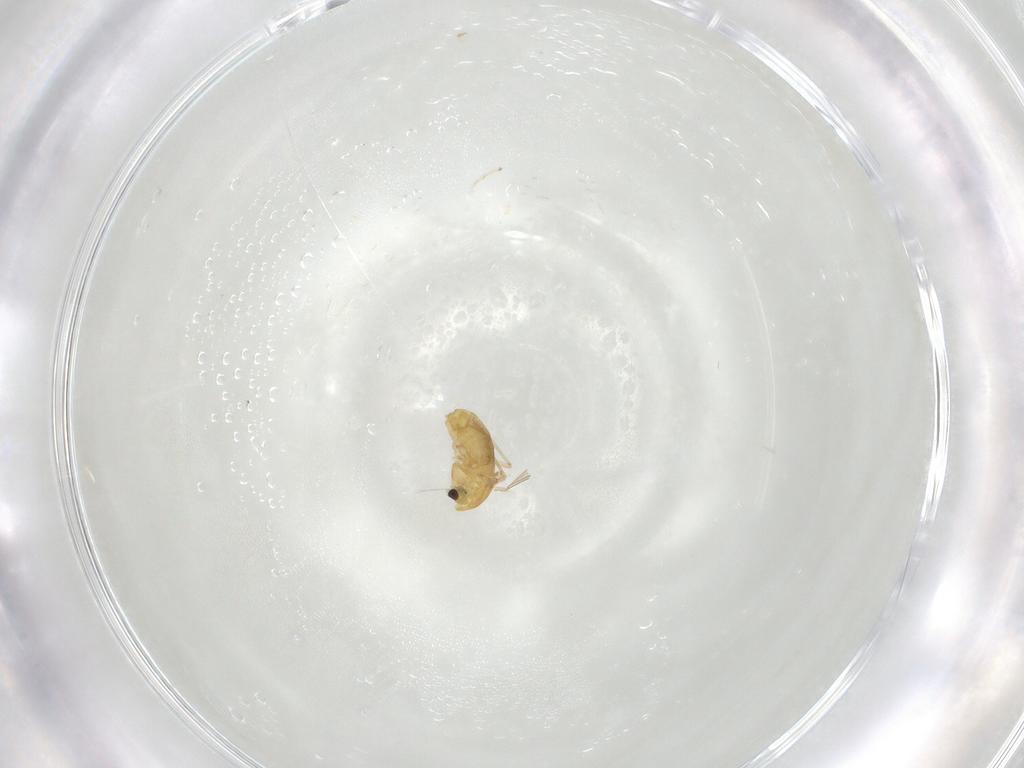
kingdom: Animalia
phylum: Arthropoda
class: Insecta
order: Diptera
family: Chironomidae
